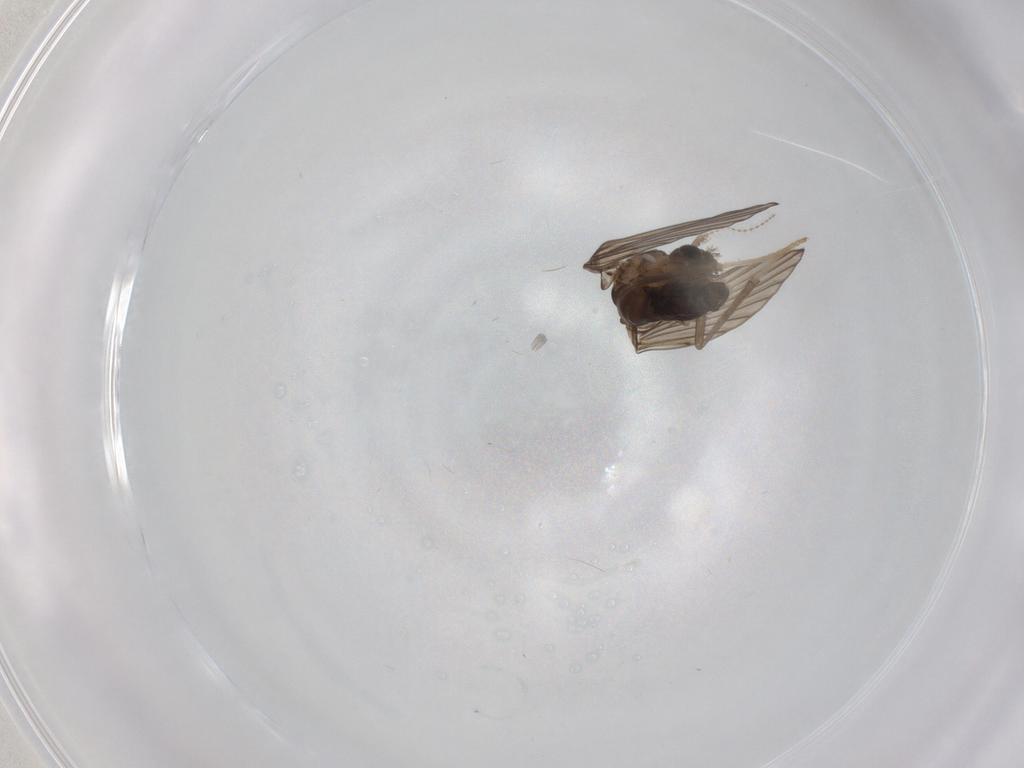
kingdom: Animalia
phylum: Arthropoda
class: Insecta
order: Diptera
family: Psychodidae
